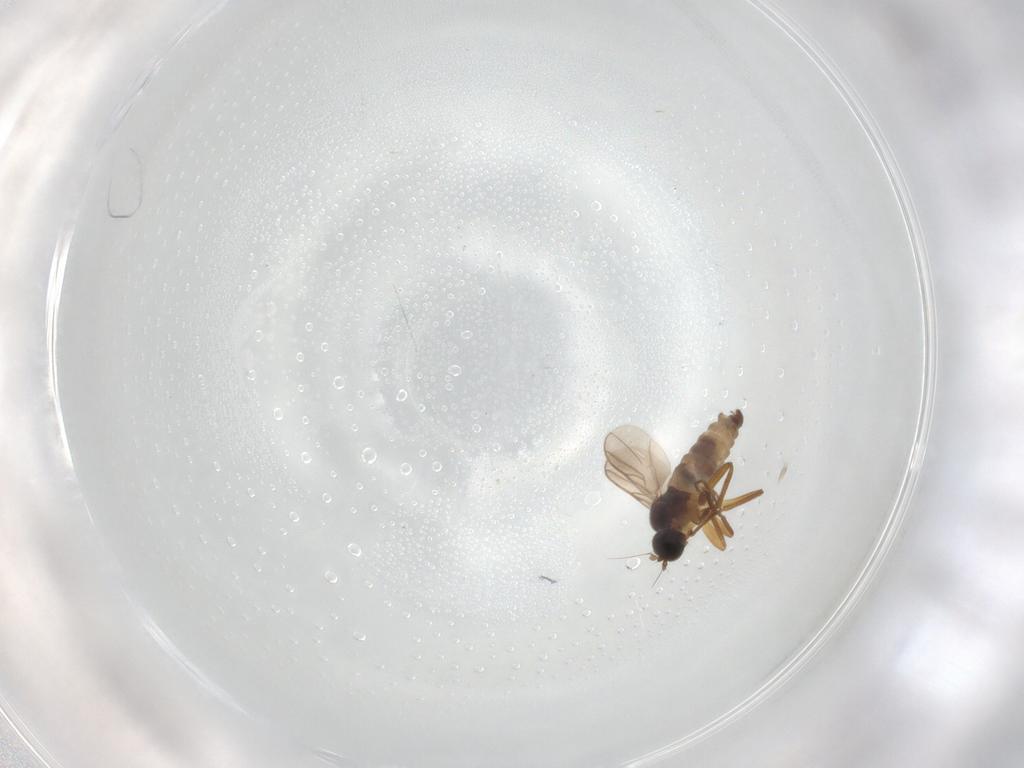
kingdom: Animalia
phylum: Arthropoda
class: Insecta
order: Diptera
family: Hybotidae
